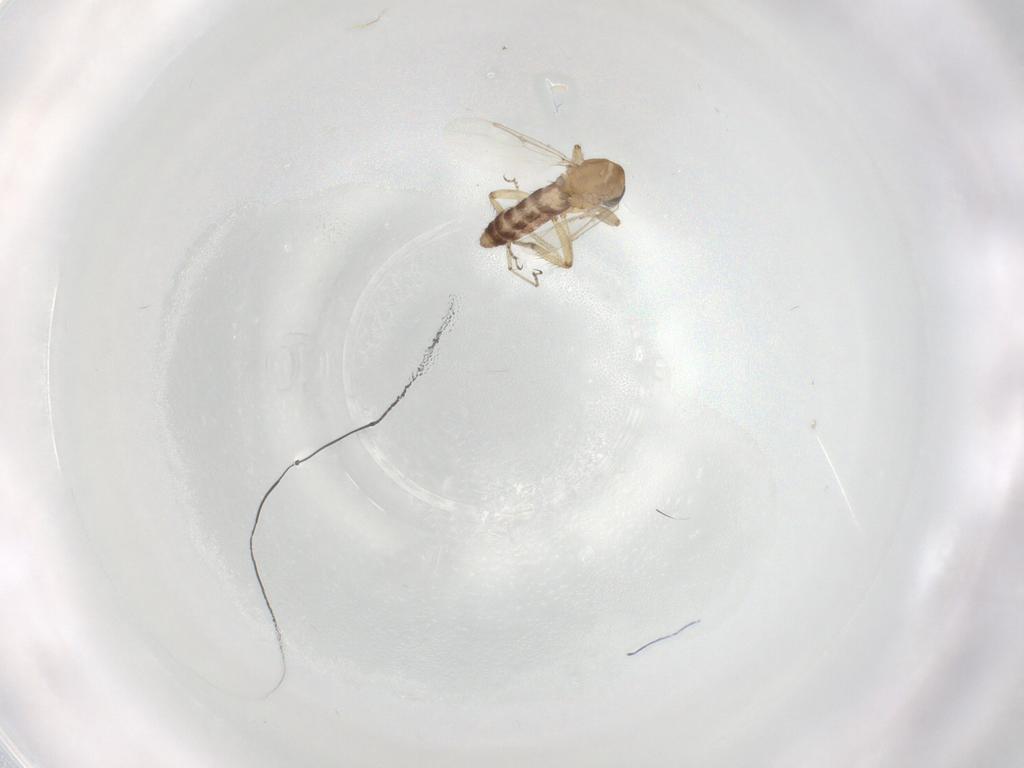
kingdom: Animalia
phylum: Arthropoda
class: Insecta
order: Diptera
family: Ceratopogonidae
